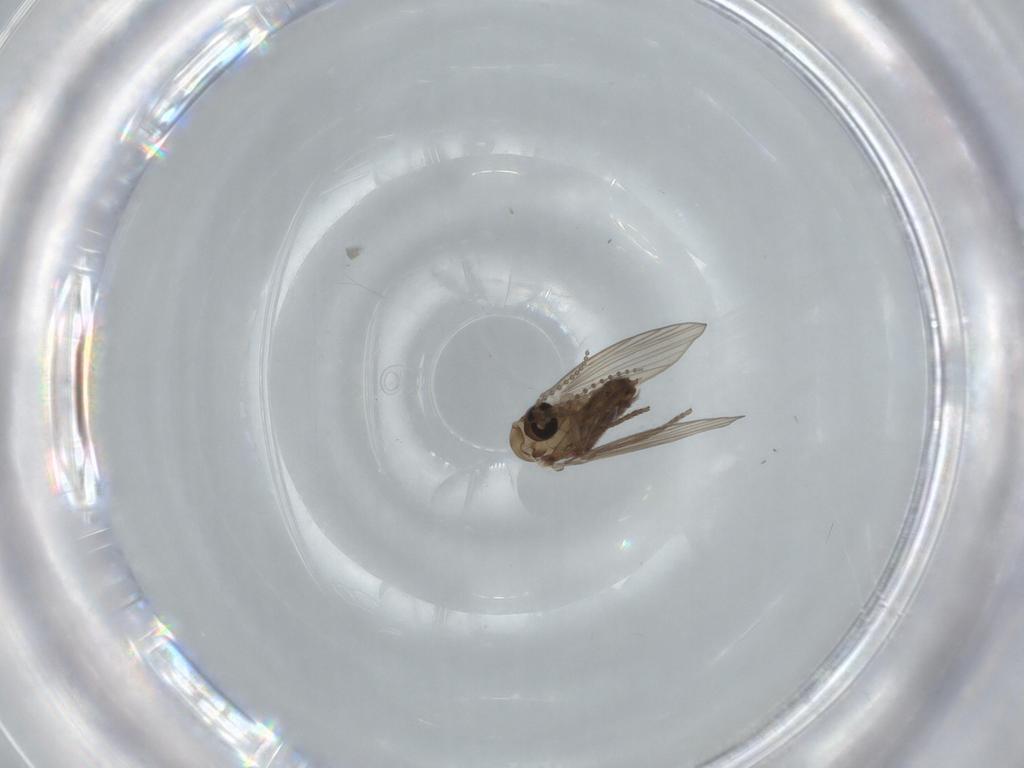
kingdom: Animalia
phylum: Arthropoda
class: Insecta
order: Diptera
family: Psychodidae
